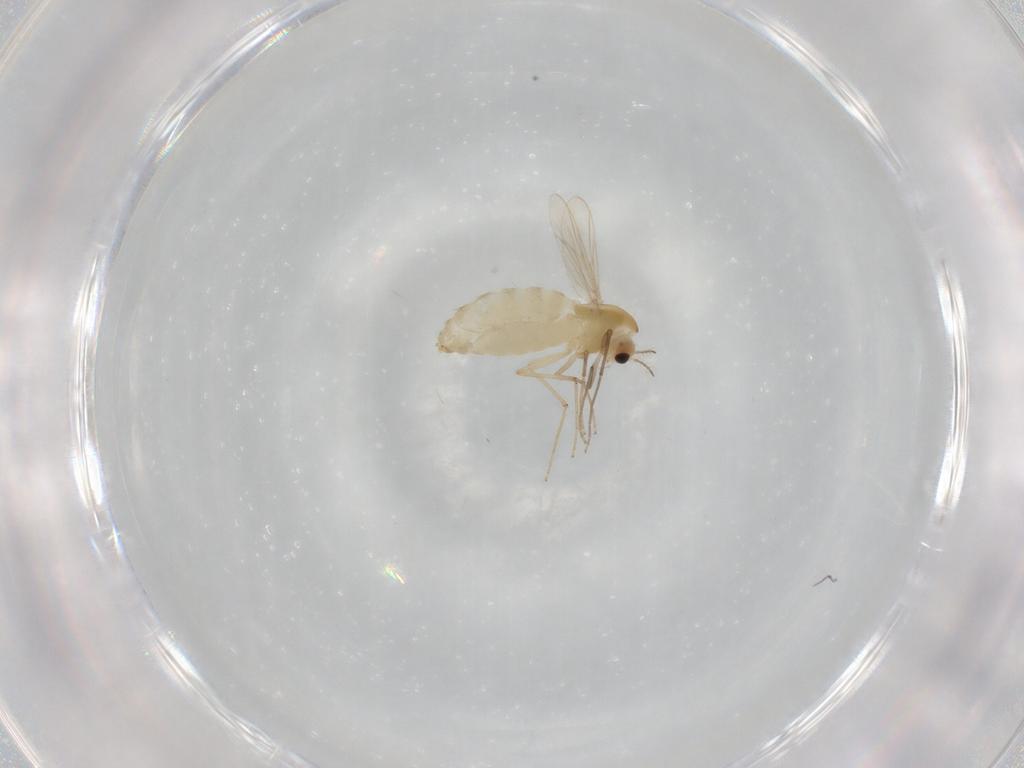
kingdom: Animalia
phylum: Arthropoda
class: Insecta
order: Diptera
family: Chironomidae
